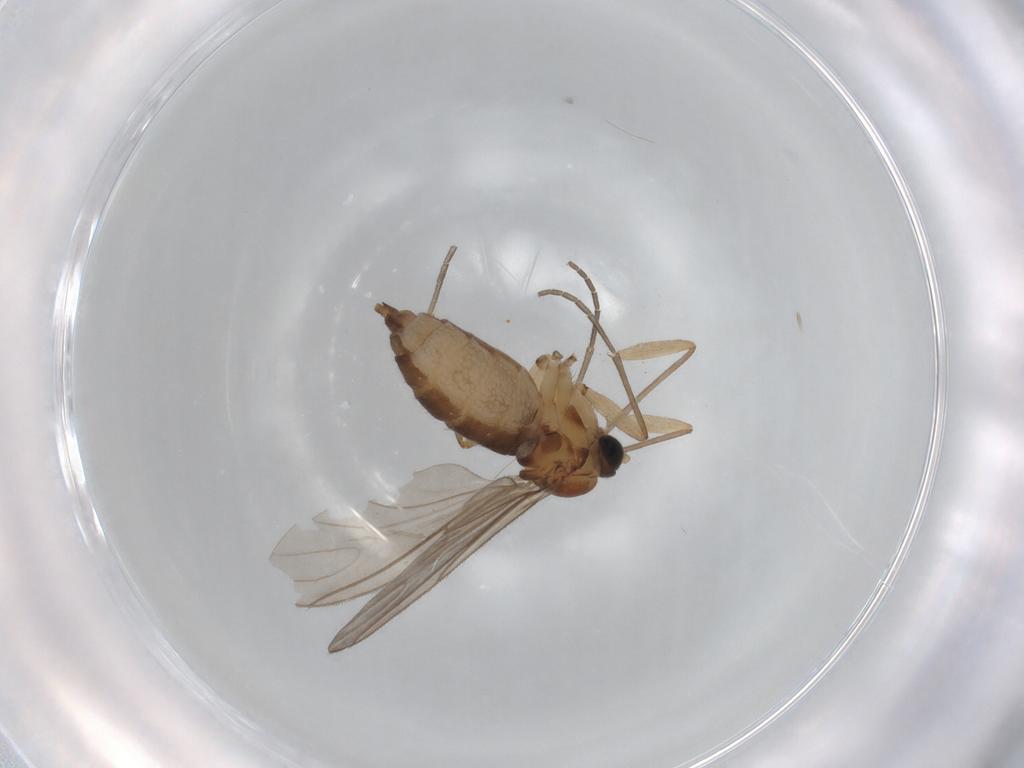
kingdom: Animalia
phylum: Arthropoda
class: Insecta
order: Diptera
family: Sciaridae
